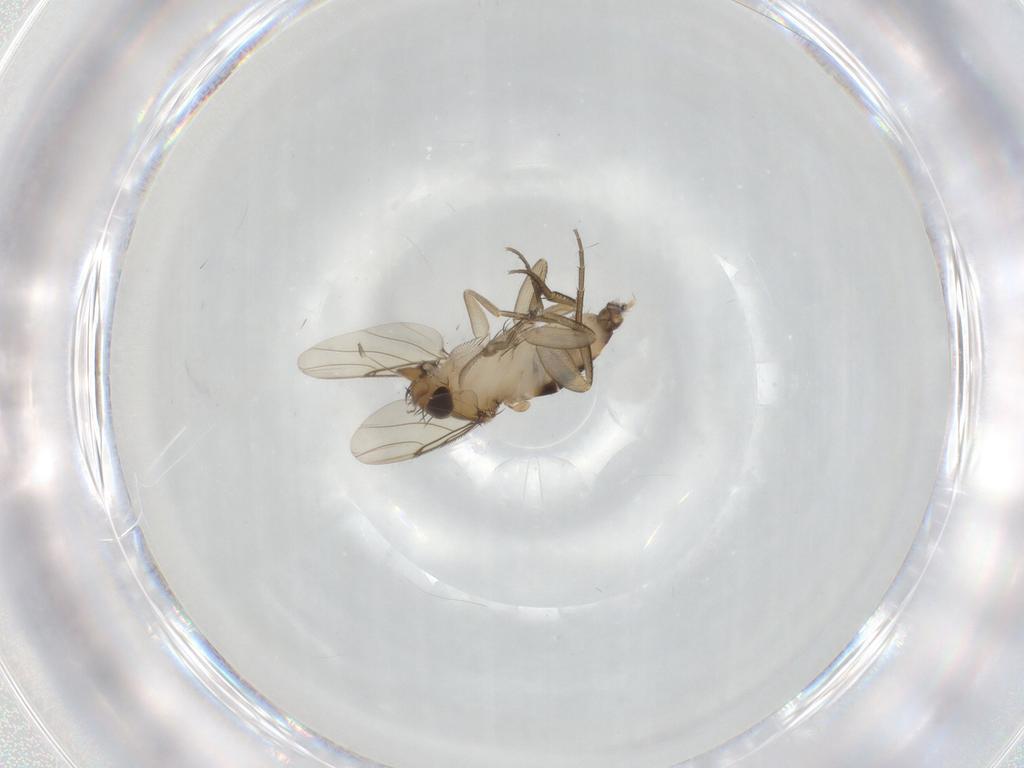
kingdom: Animalia
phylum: Arthropoda
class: Insecta
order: Diptera
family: Phoridae
